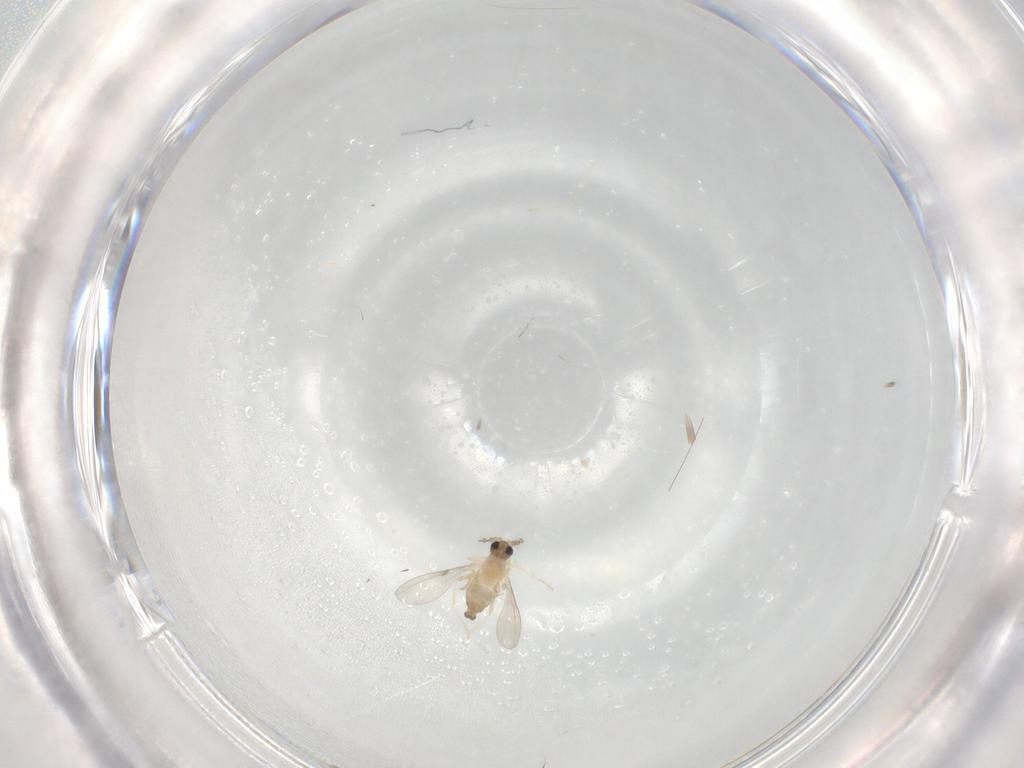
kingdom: Animalia
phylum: Arthropoda
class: Insecta
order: Diptera
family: Cecidomyiidae
